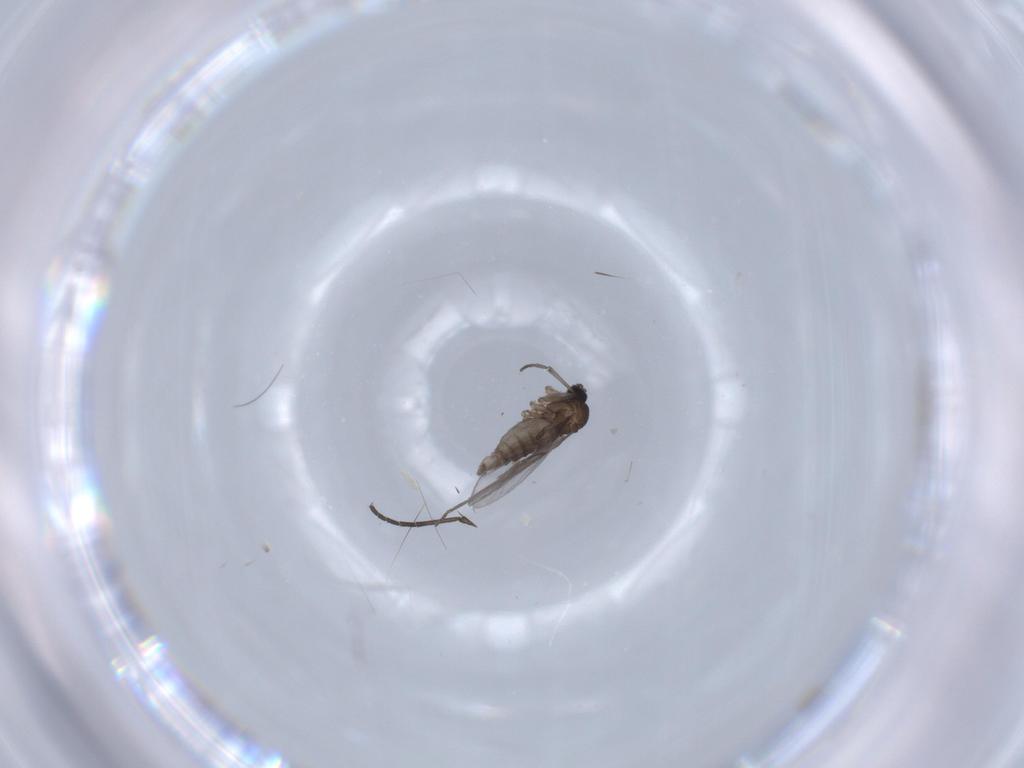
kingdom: Animalia
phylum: Arthropoda
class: Insecta
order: Diptera
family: Sciaridae
